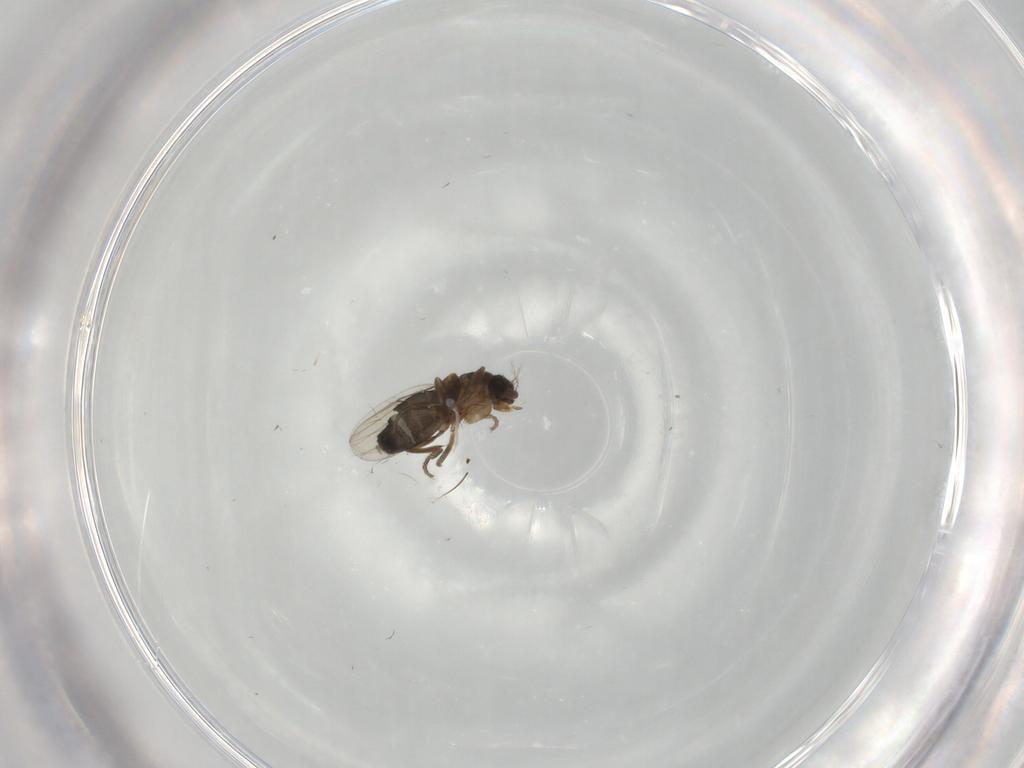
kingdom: Animalia
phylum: Arthropoda
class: Insecta
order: Diptera
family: Phoridae
